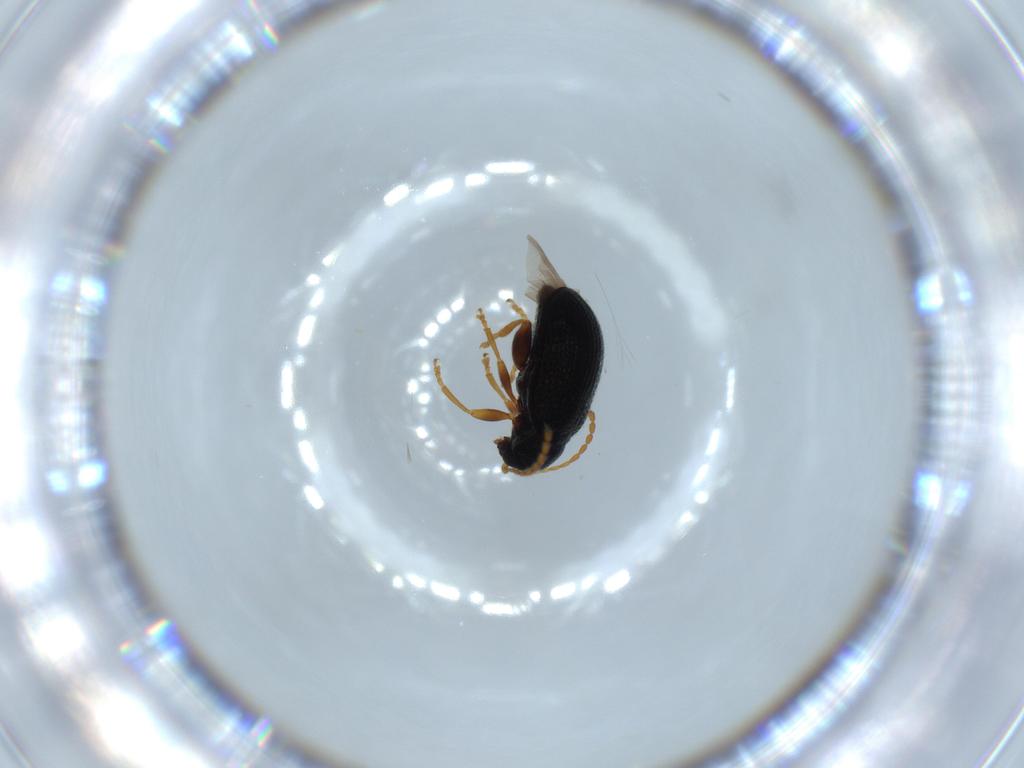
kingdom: Animalia
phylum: Arthropoda
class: Insecta
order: Coleoptera
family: Chrysomelidae
